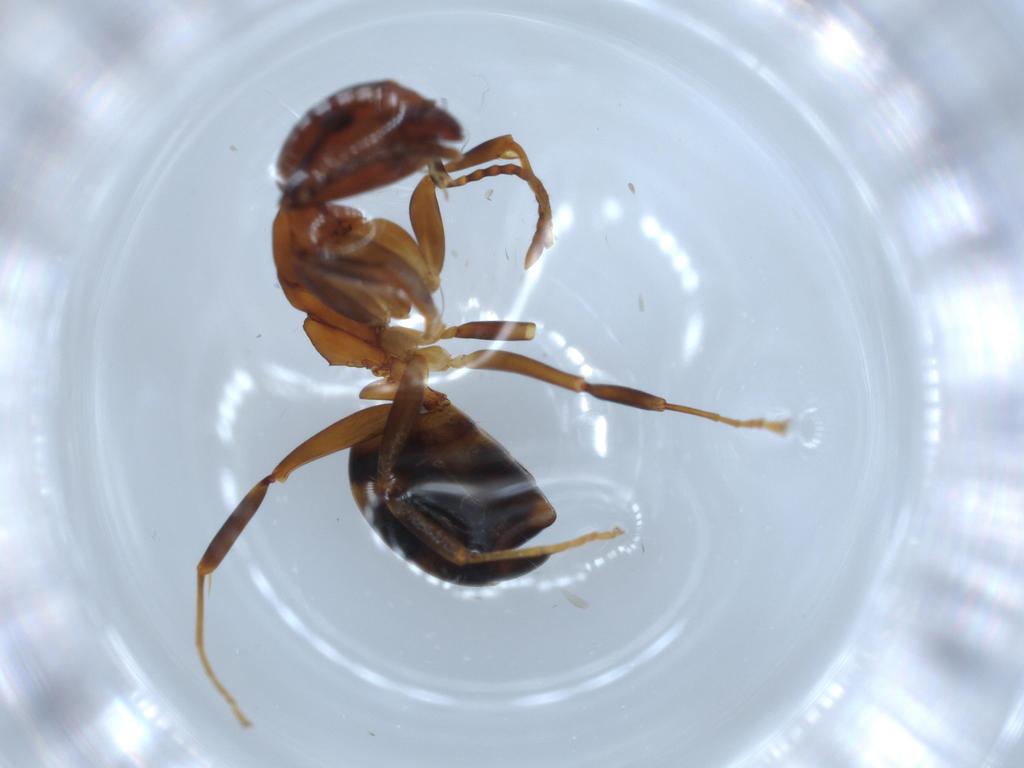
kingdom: Animalia
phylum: Arthropoda
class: Insecta
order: Hymenoptera
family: Formicidae
